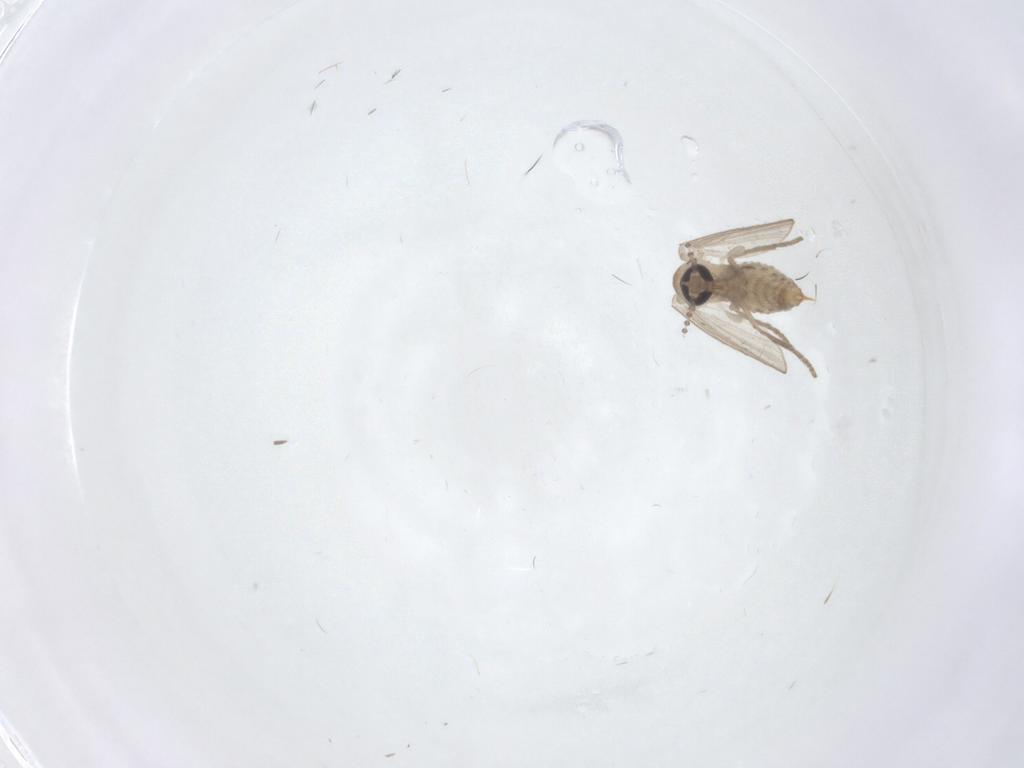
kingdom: Animalia
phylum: Arthropoda
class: Insecta
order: Diptera
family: Psychodidae
